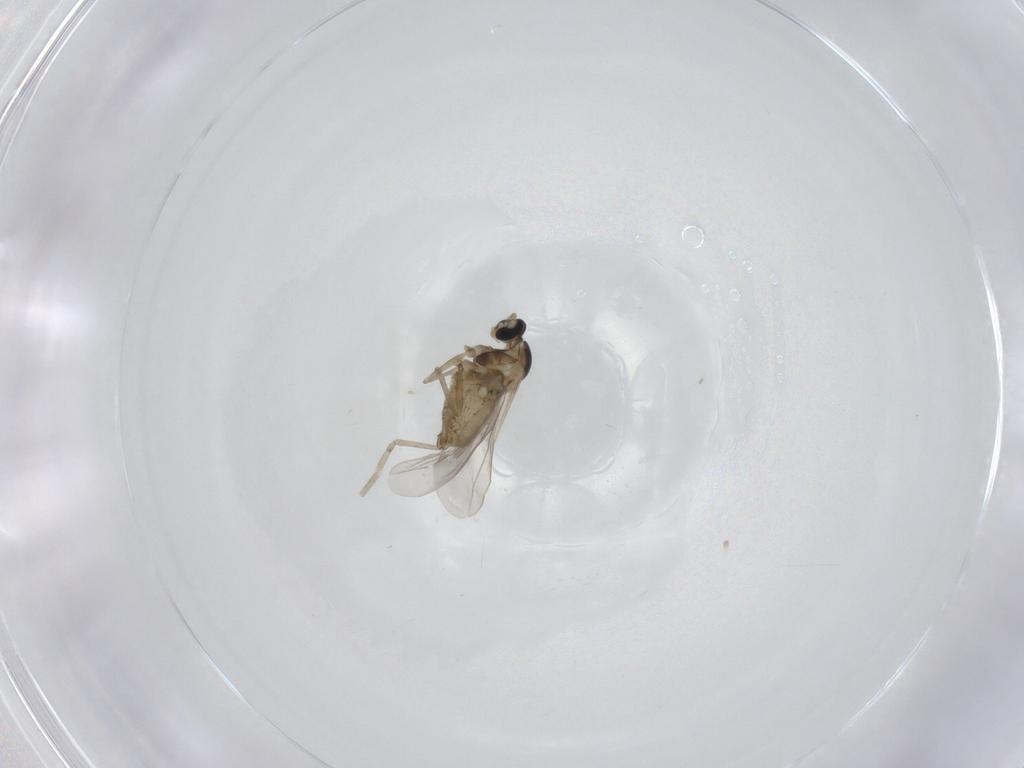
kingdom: Animalia
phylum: Arthropoda
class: Insecta
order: Diptera
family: Cecidomyiidae
